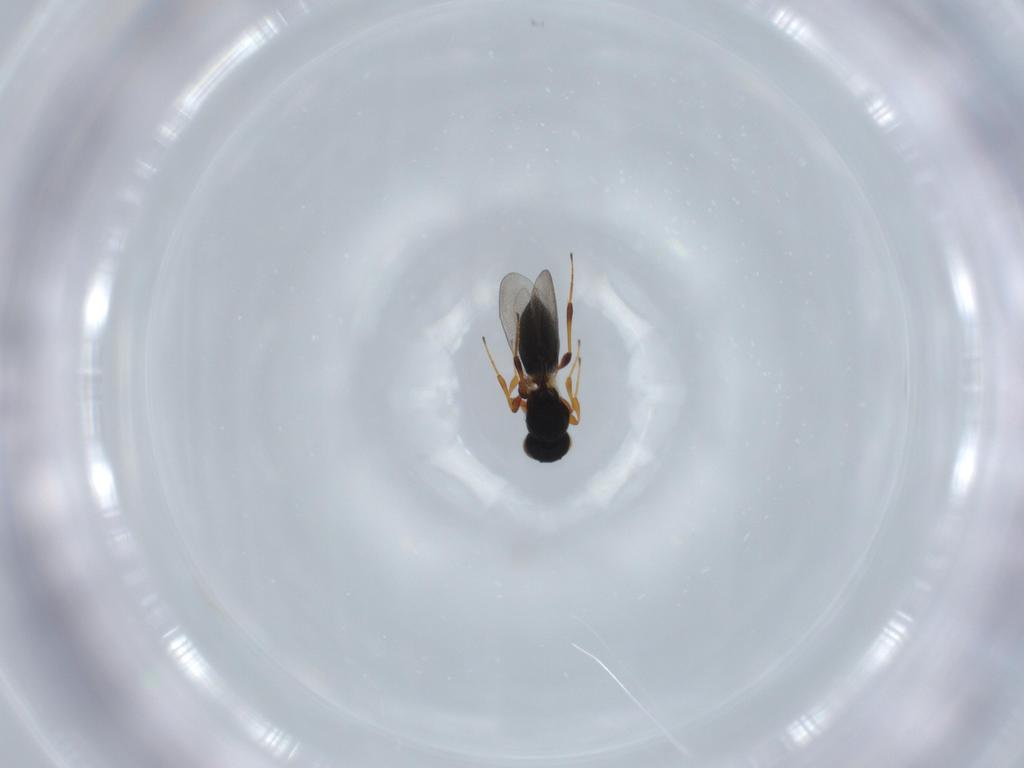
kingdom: Animalia
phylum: Arthropoda
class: Insecta
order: Hymenoptera
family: Platygastridae
